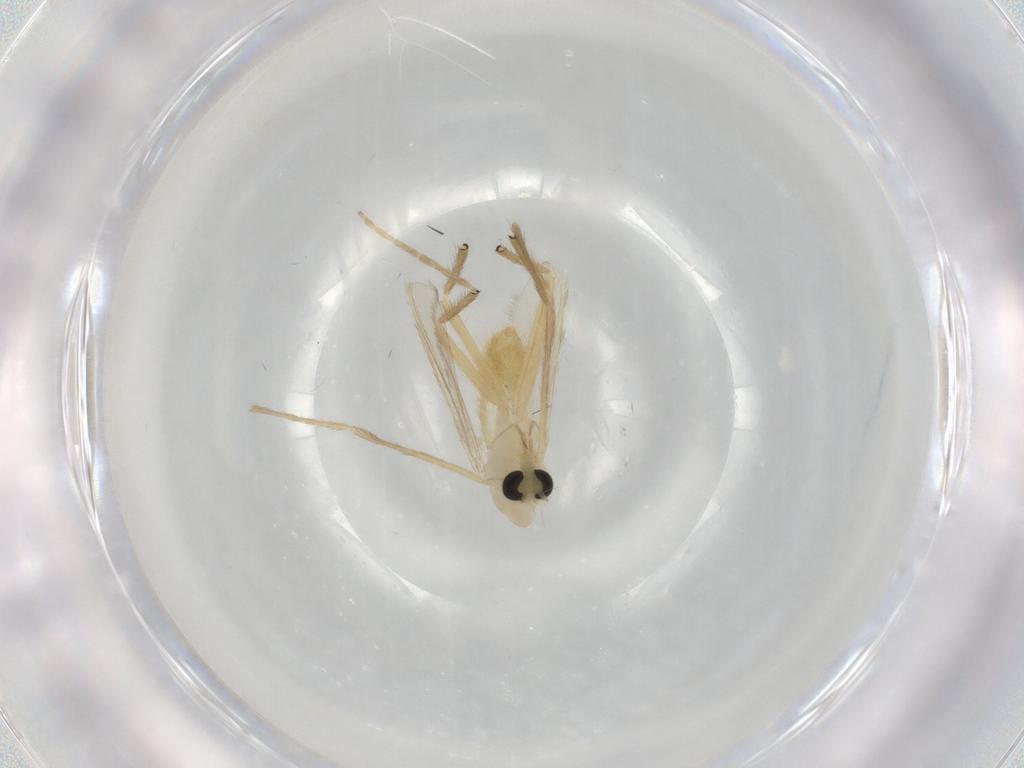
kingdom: Animalia
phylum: Arthropoda
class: Insecta
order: Diptera
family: Chironomidae
